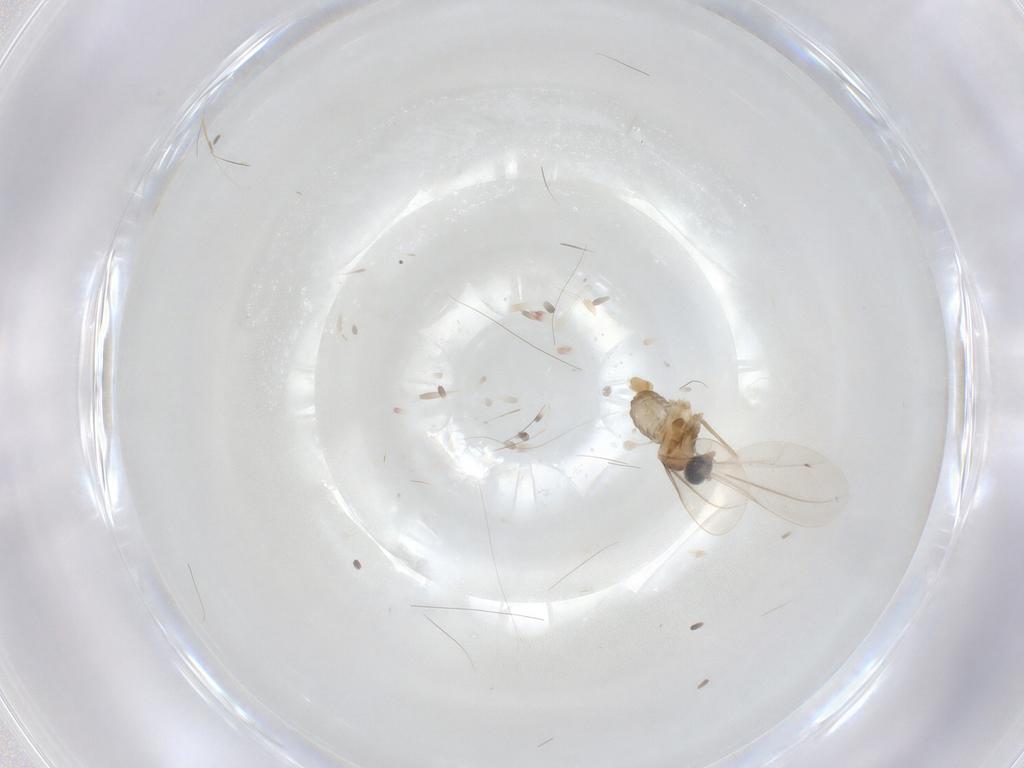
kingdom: Animalia
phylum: Arthropoda
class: Insecta
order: Diptera
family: Cecidomyiidae
